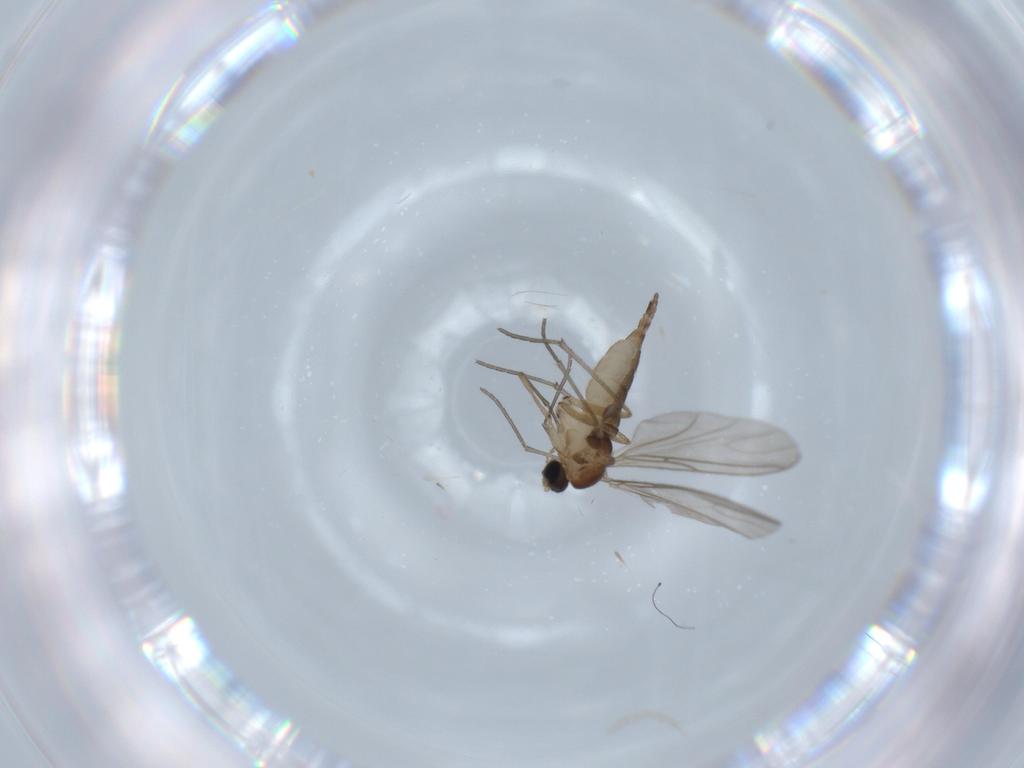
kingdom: Animalia
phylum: Arthropoda
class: Insecta
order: Diptera
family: Sciaridae
